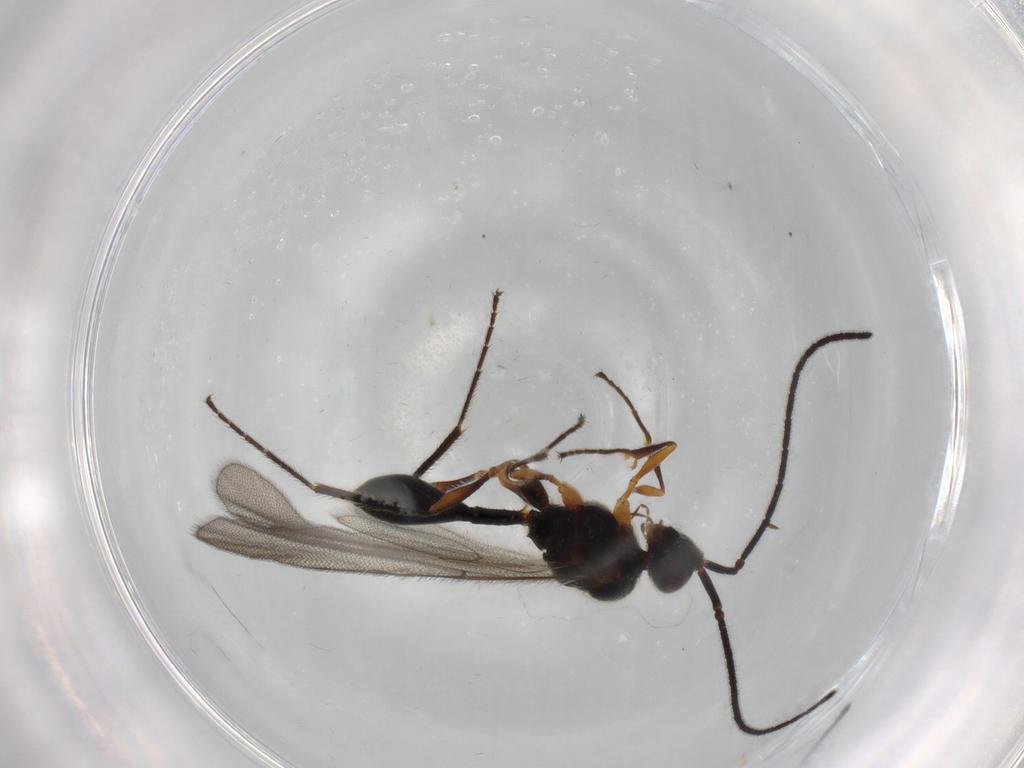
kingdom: Animalia
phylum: Arthropoda
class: Insecta
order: Hymenoptera
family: Diapriidae
